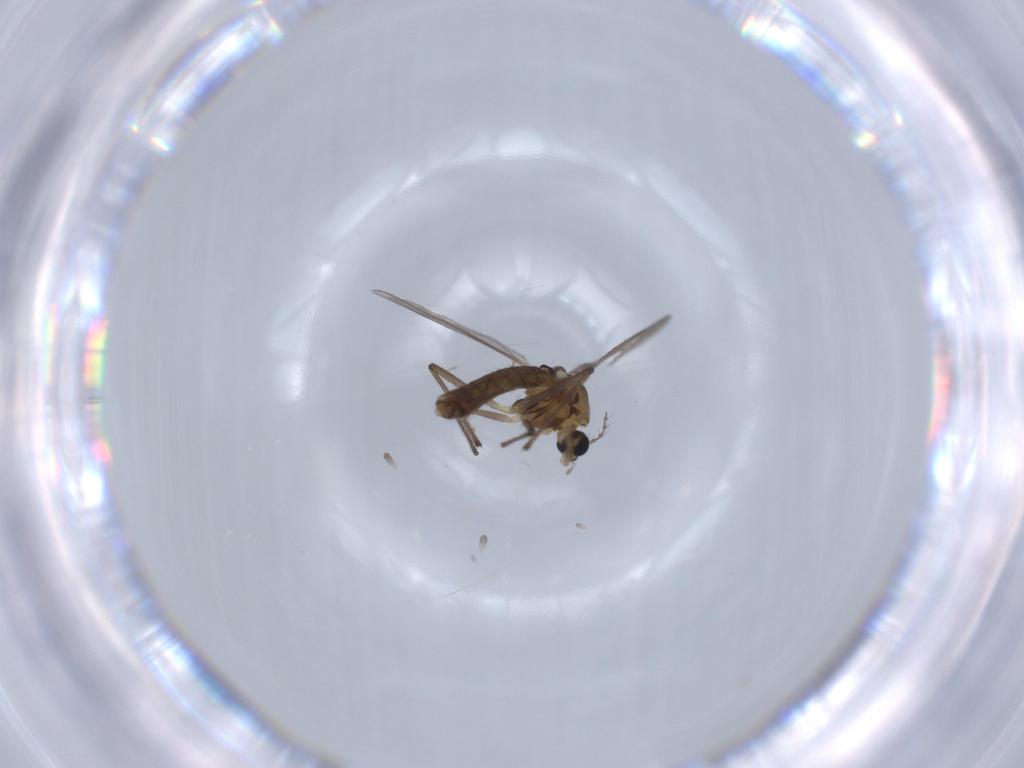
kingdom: Animalia
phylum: Arthropoda
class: Insecta
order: Diptera
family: Chironomidae
